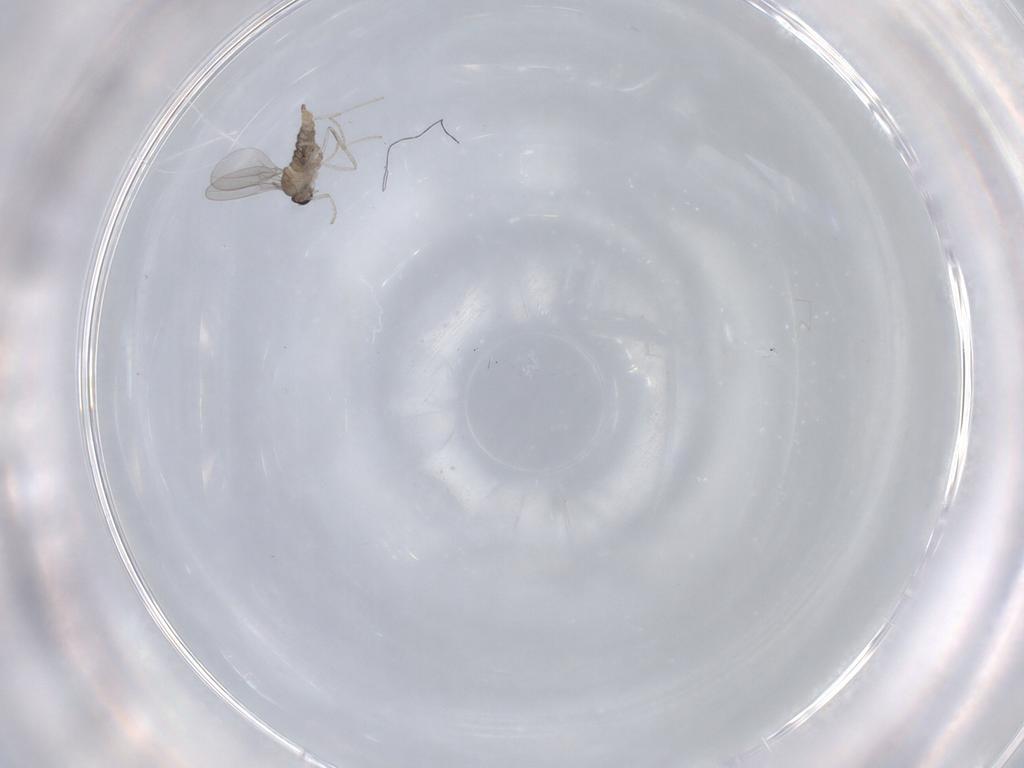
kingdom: Animalia
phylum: Arthropoda
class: Insecta
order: Diptera
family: Cecidomyiidae
